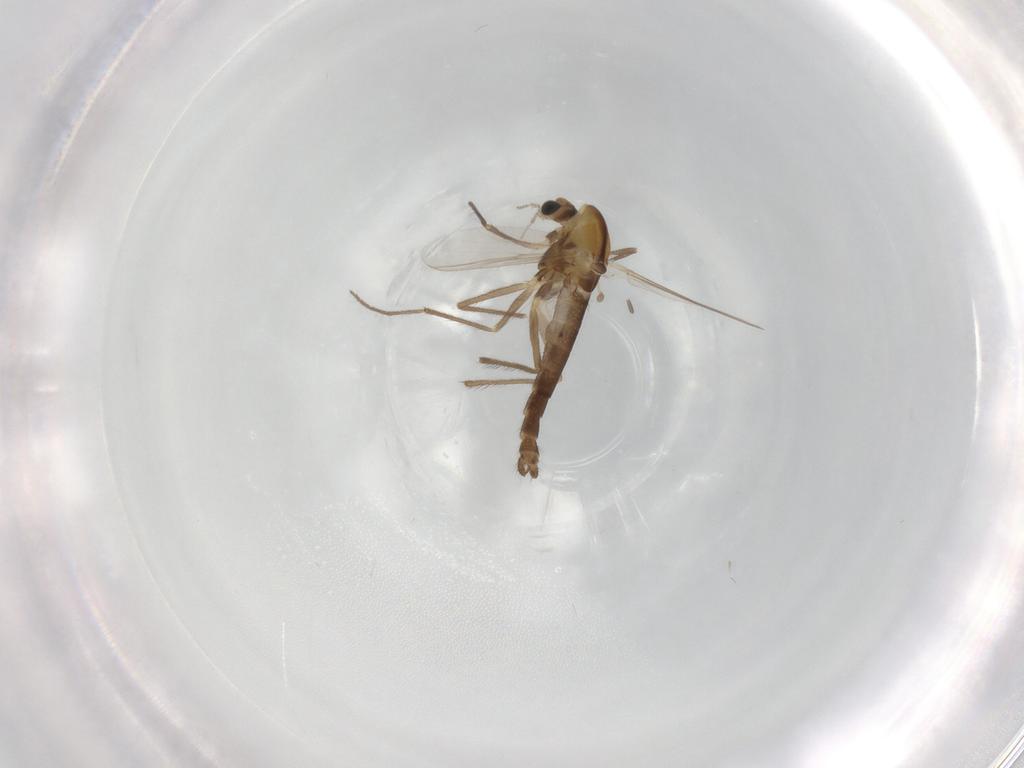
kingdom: Animalia
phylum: Arthropoda
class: Insecta
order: Diptera
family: Chironomidae
